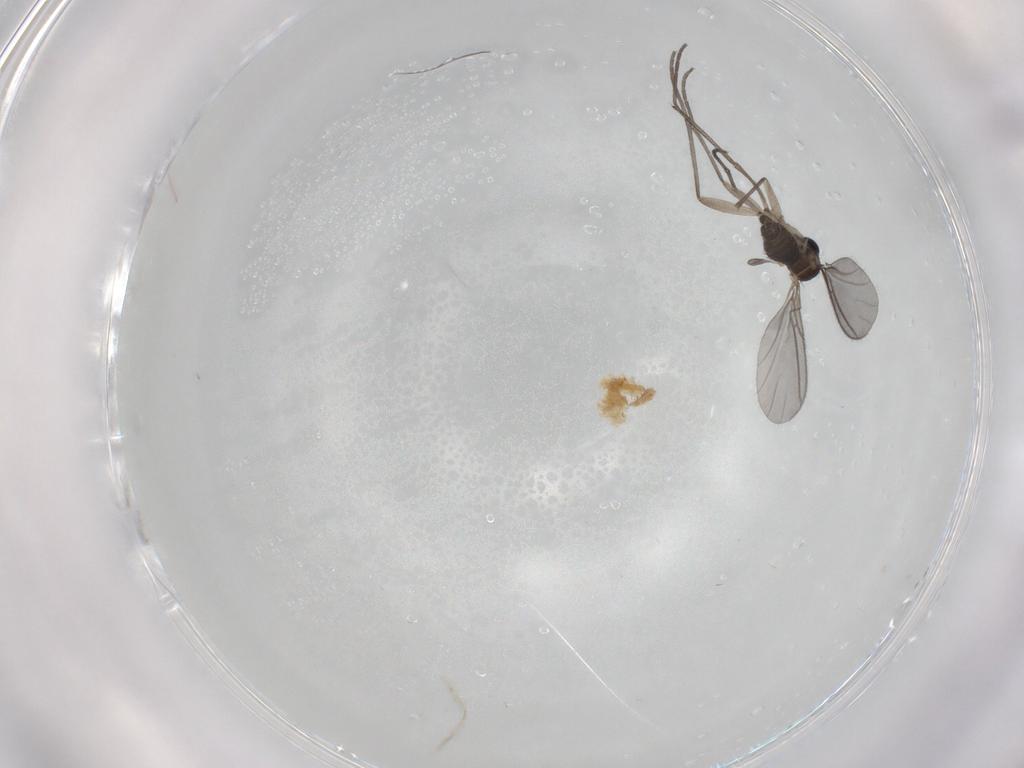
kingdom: Animalia
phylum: Arthropoda
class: Insecta
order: Diptera
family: Sciaridae
